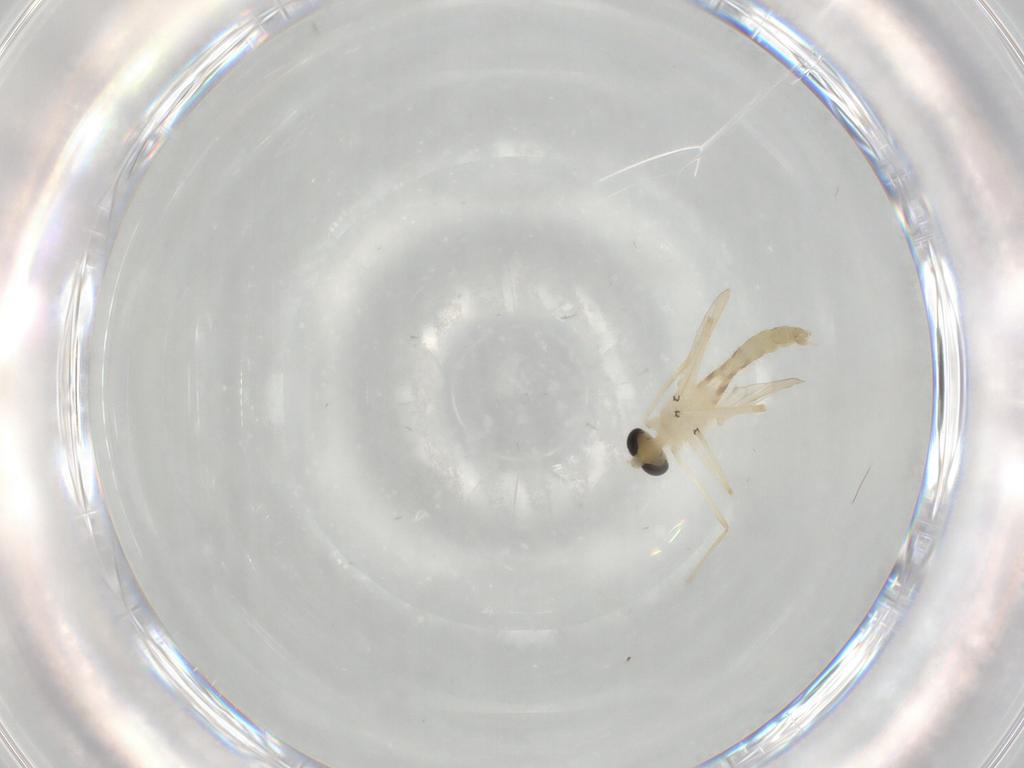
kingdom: Animalia
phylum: Arthropoda
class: Insecta
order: Diptera
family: Chironomidae
